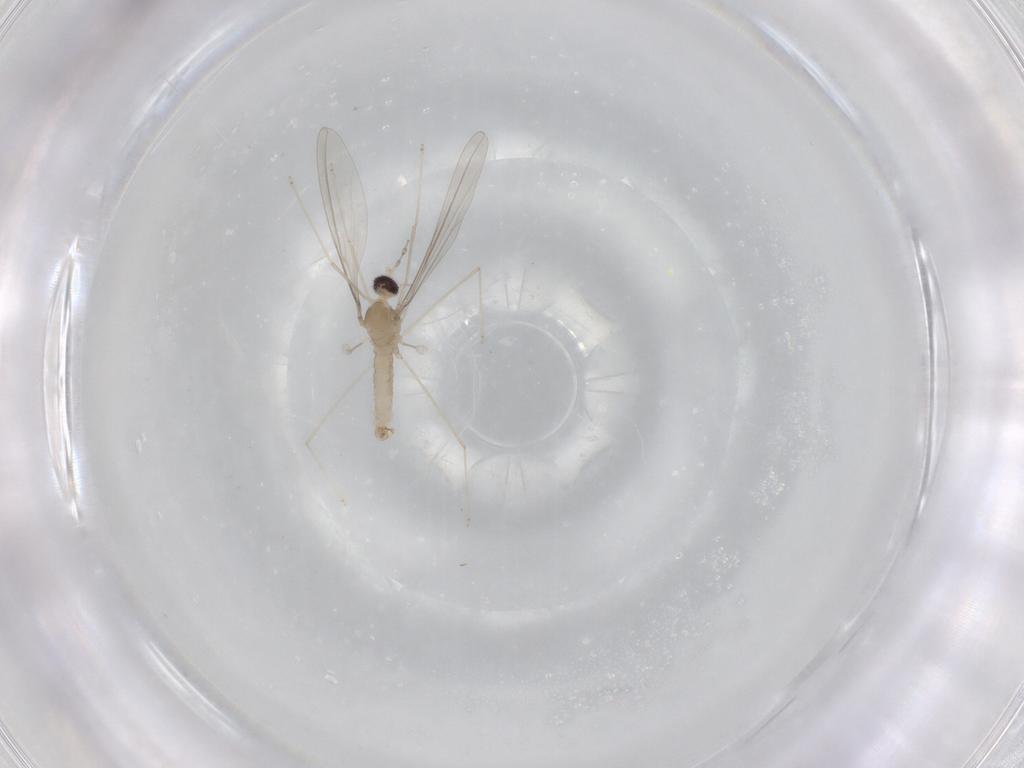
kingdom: Animalia
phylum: Arthropoda
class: Insecta
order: Diptera
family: Cecidomyiidae
